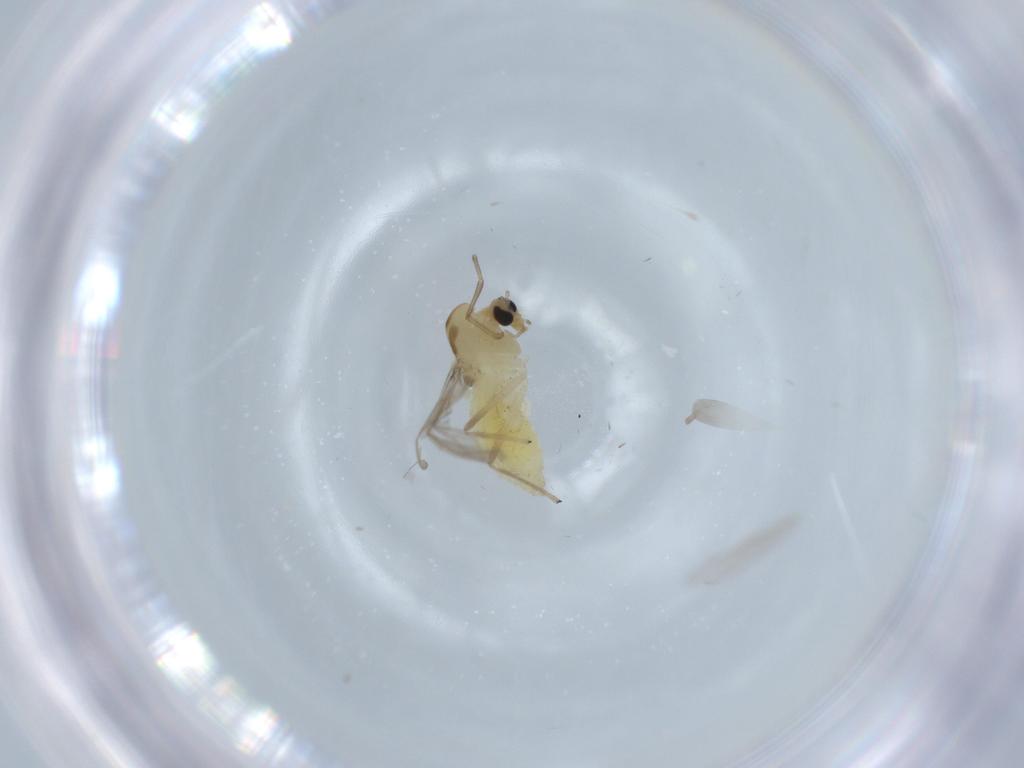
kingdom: Animalia
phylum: Arthropoda
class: Insecta
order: Diptera
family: Chironomidae
